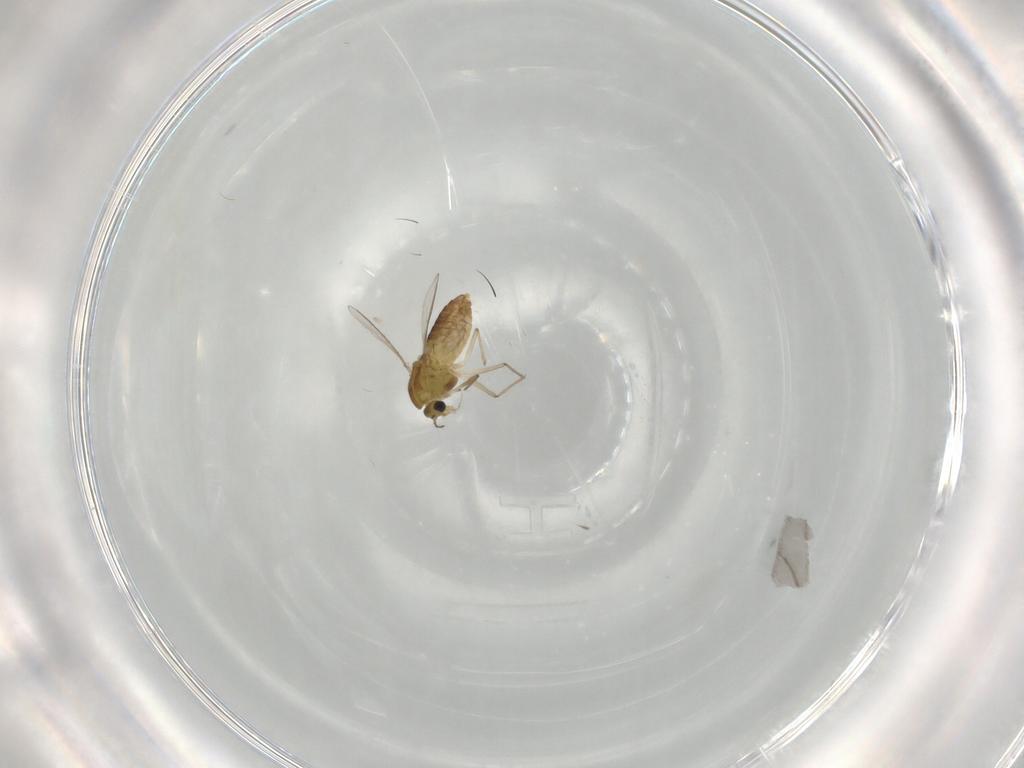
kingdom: Animalia
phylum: Arthropoda
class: Insecta
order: Diptera
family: Chironomidae
